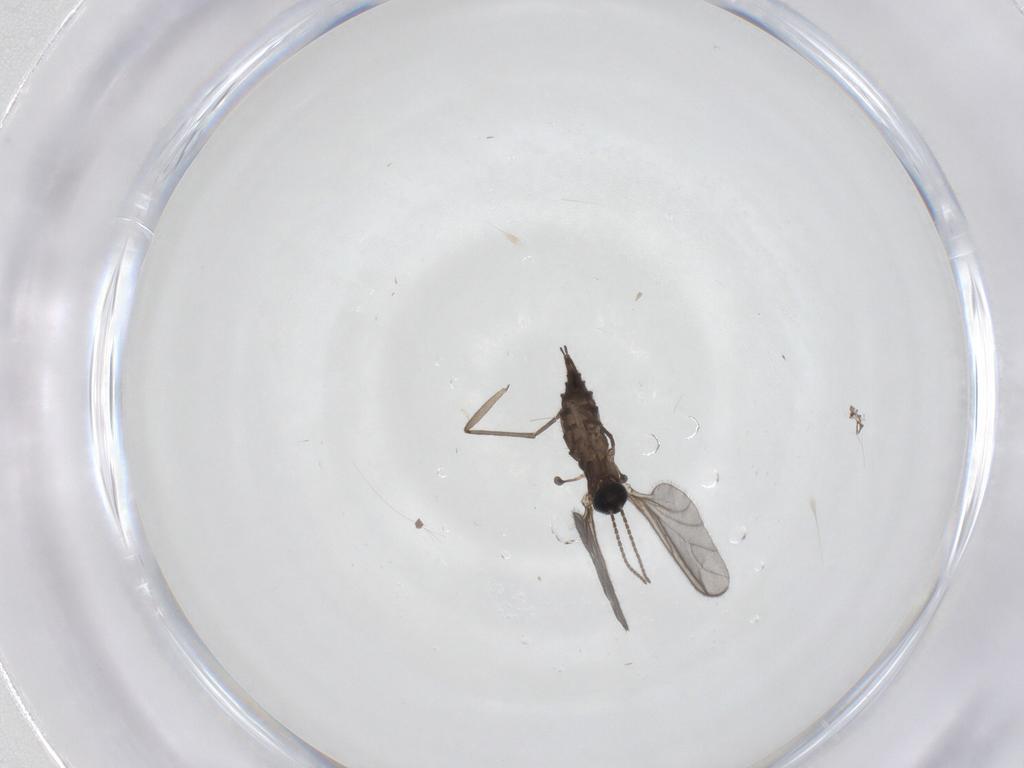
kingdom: Animalia
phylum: Arthropoda
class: Insecta
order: Diptera
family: Sciaridae
